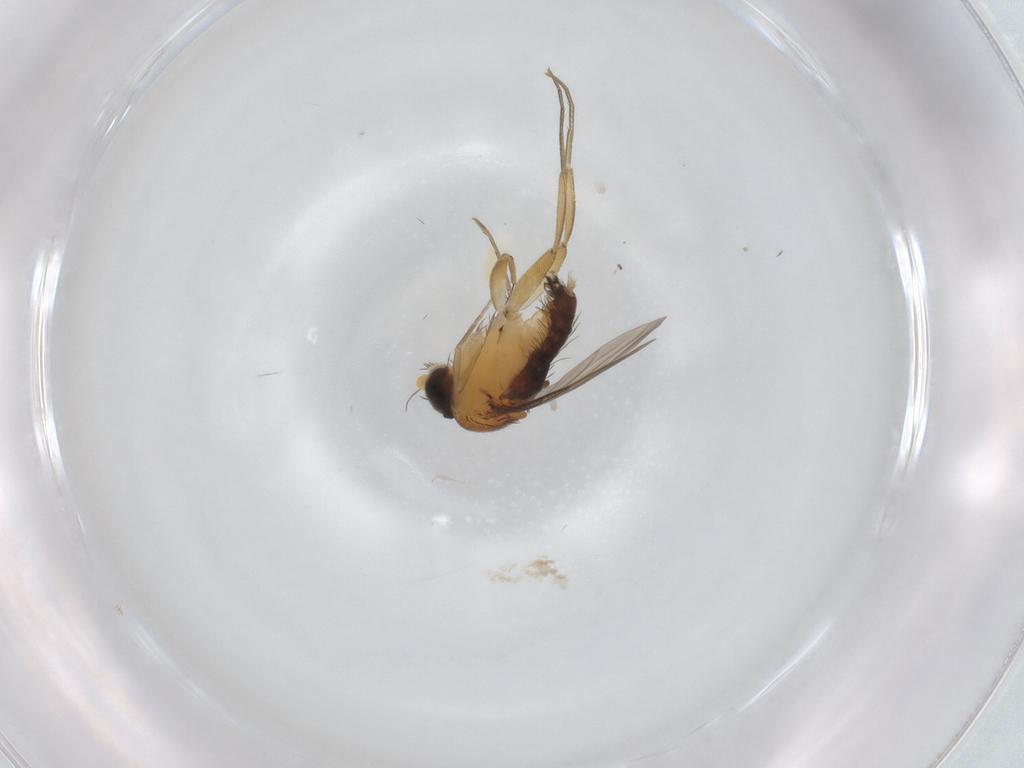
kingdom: Animalia
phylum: Arthropoda
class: Insecta
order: Diptera
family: Phoridae
